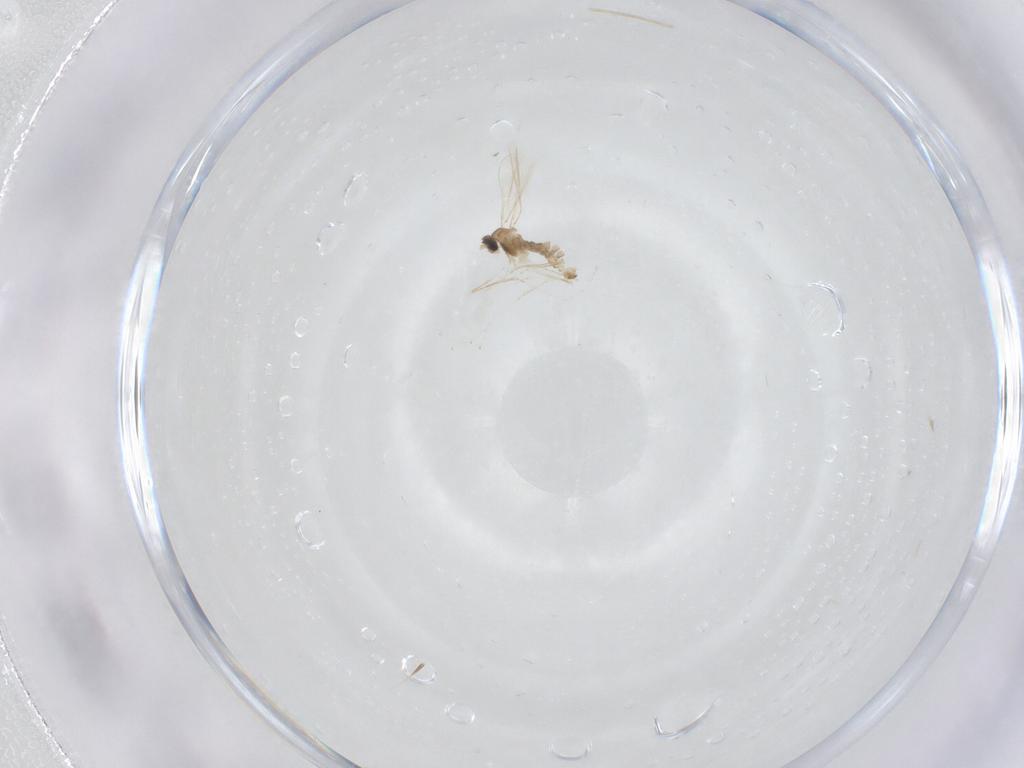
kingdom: Animalia
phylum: Arthropoda
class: Insecta
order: Diptera
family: Cecidomyiidae
